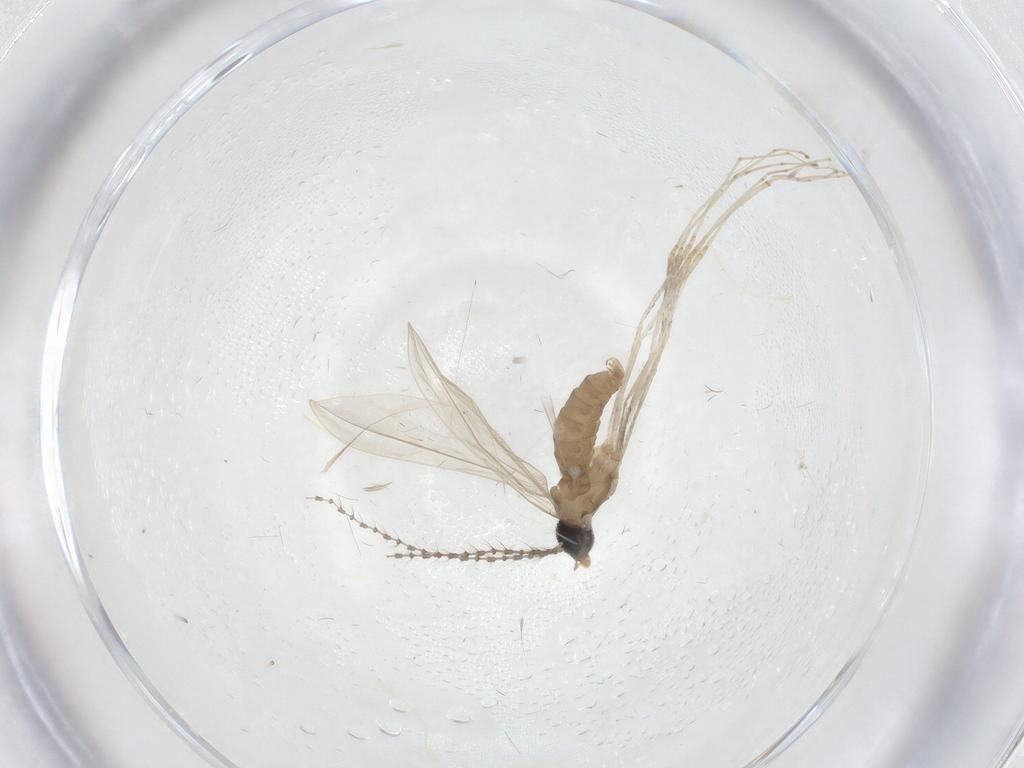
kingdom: Animalia
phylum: Arthropoda
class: Insecta
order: Diptera
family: Cecidomyiidae
